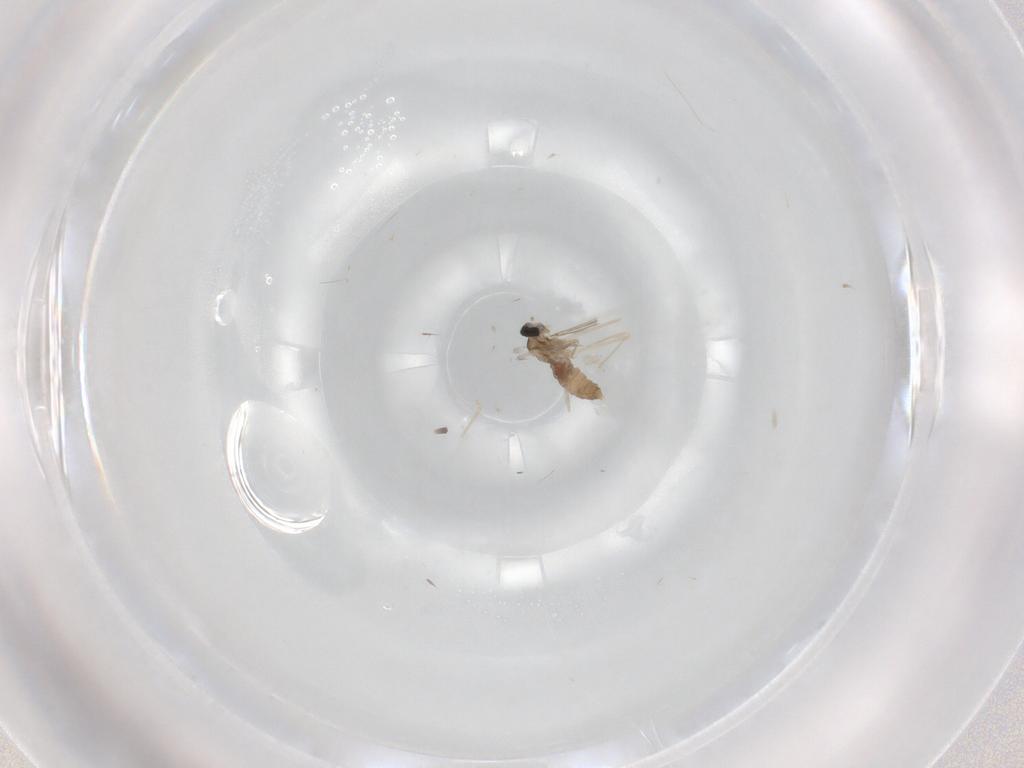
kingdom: Animalia
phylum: Arthropoda
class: Insecta
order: Diptera
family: Cecidomyiidae
